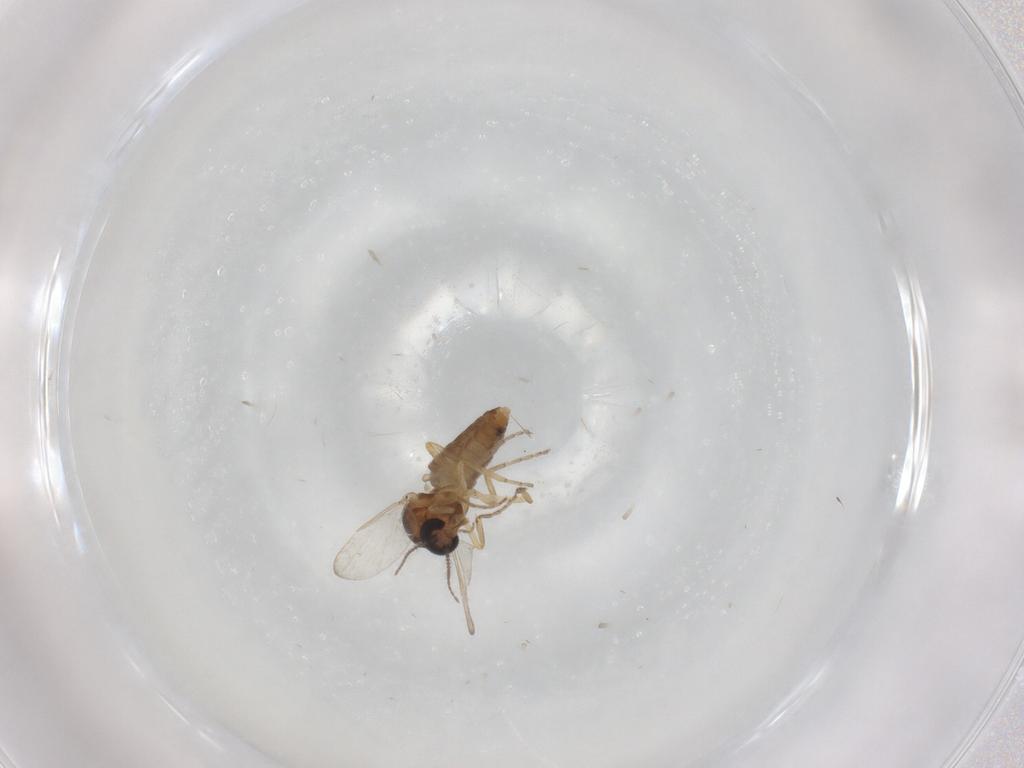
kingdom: Animalia
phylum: Arthropoda
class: Insecta
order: Diptera
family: Ceratopogonidae
